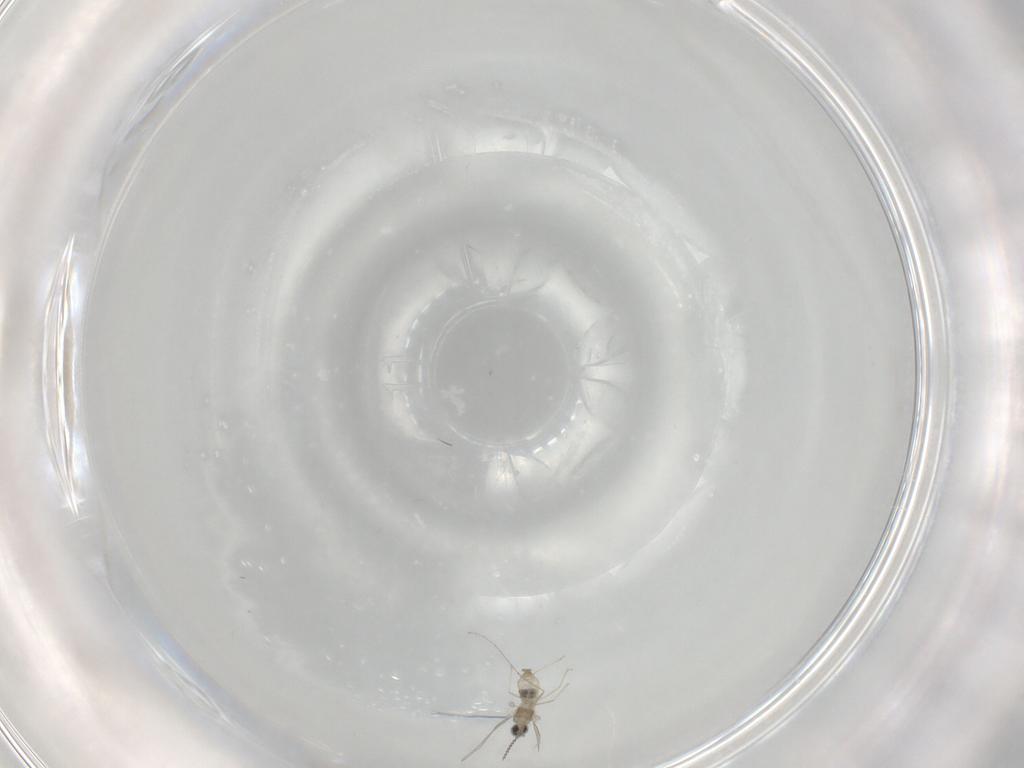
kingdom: Animalia
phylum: Arthropoda
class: Insecta
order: Diptera
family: Cecidomyiidae
